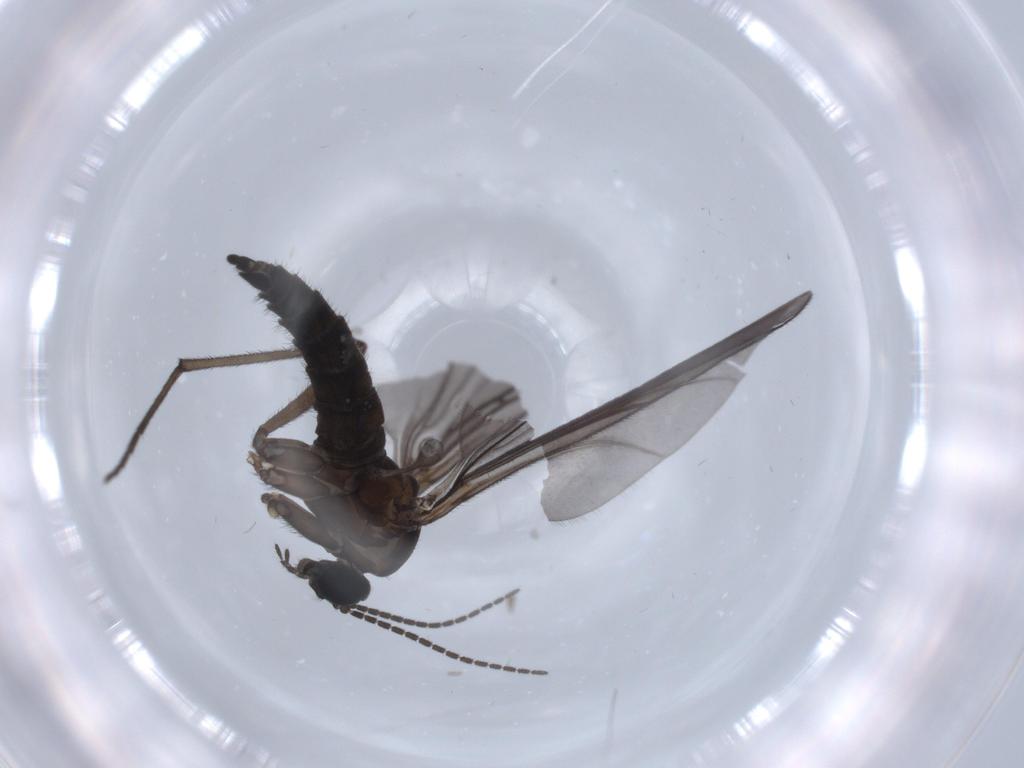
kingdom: Animalia
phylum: Arthropoda
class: Insecta
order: Diptera
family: Sciaridae
